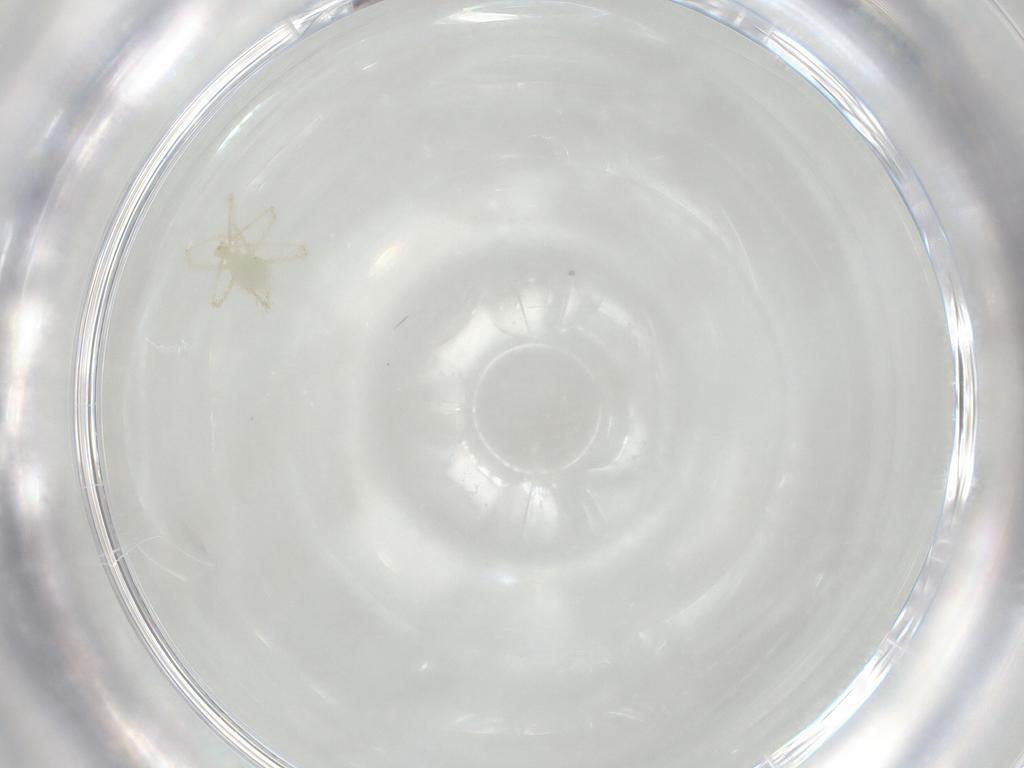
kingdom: Animalia
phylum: Arthropoda
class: Arachnida
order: Trombidiformes
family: Erythraeidae
